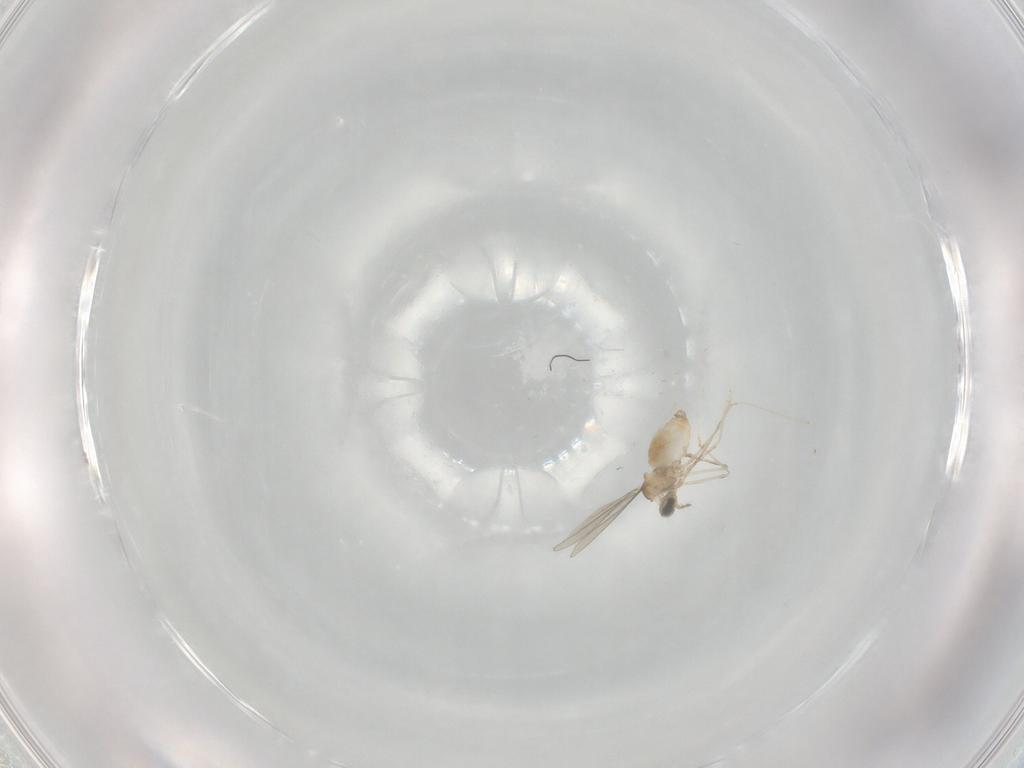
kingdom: Animalia
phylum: Arthropoda
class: Insecta
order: Diptera
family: Cecidomyiidae
